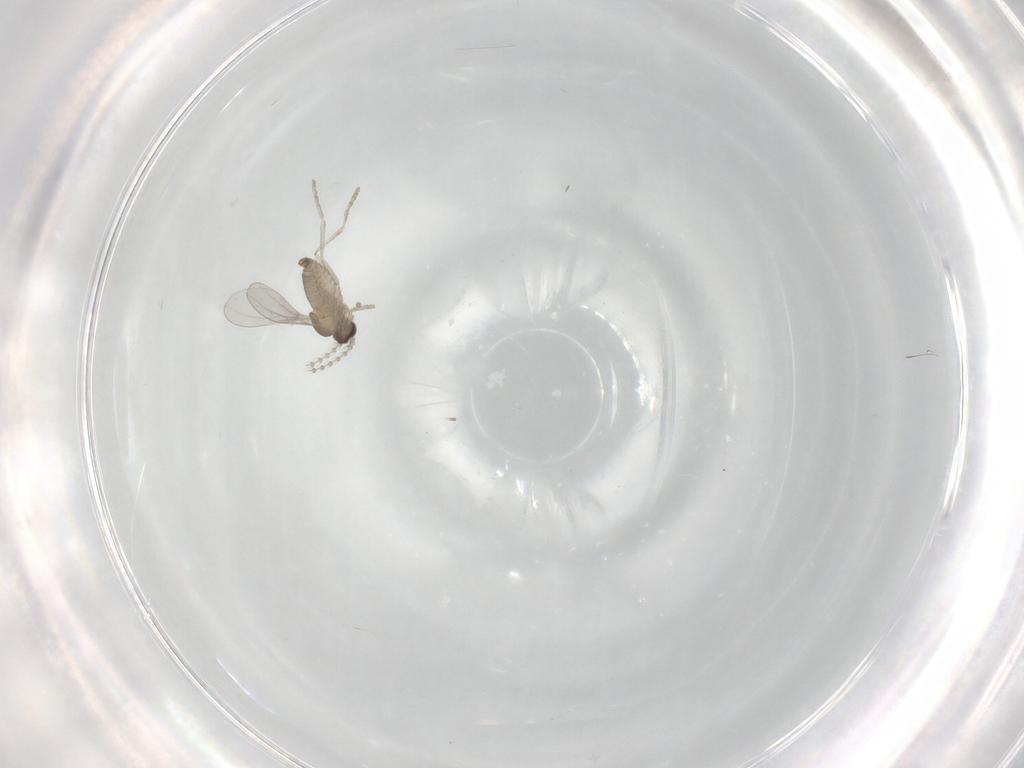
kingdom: Animalia
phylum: Arthropoda
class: Insecta
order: Diptera
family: Cecidomyiidae
